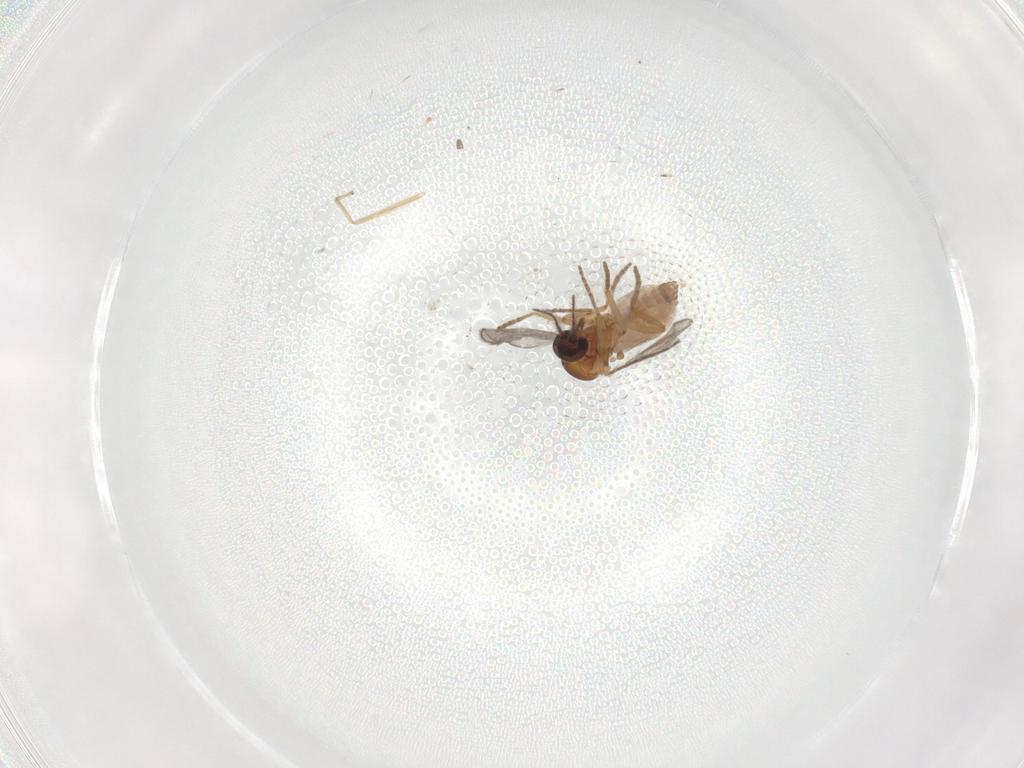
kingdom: Animalia
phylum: Arthropoda
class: Insecta
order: Diptera
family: Ceratopogonidae
